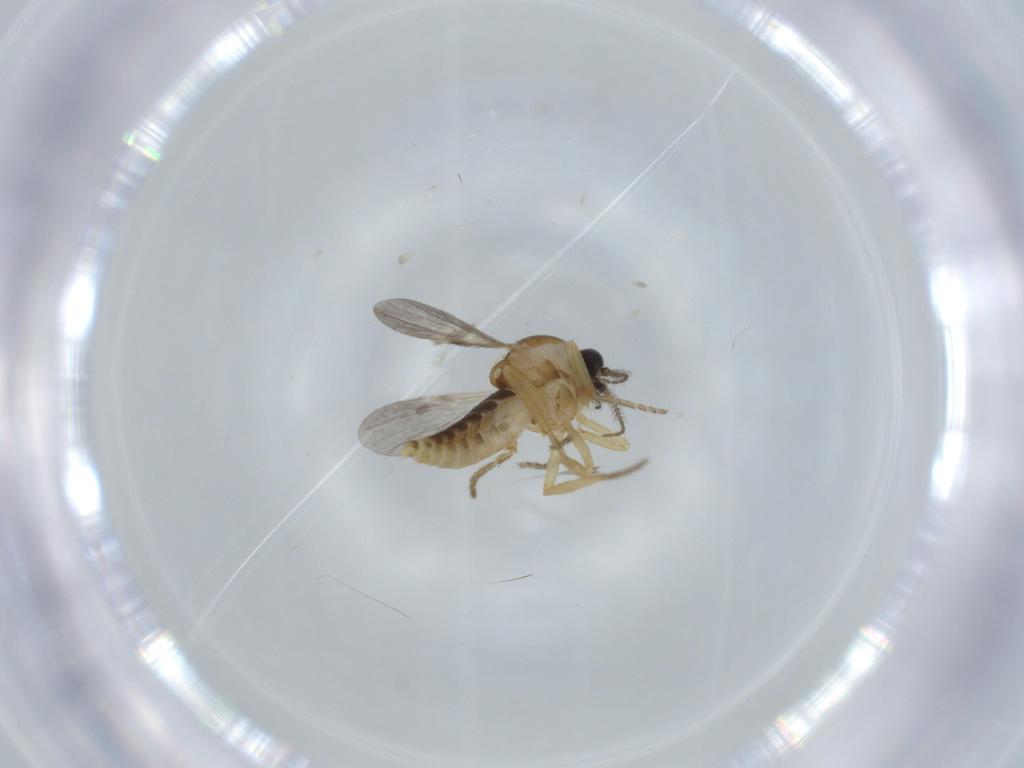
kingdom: Animalia
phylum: Arthropoda
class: Insecta
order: Diptera
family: Ceratopogonidae
